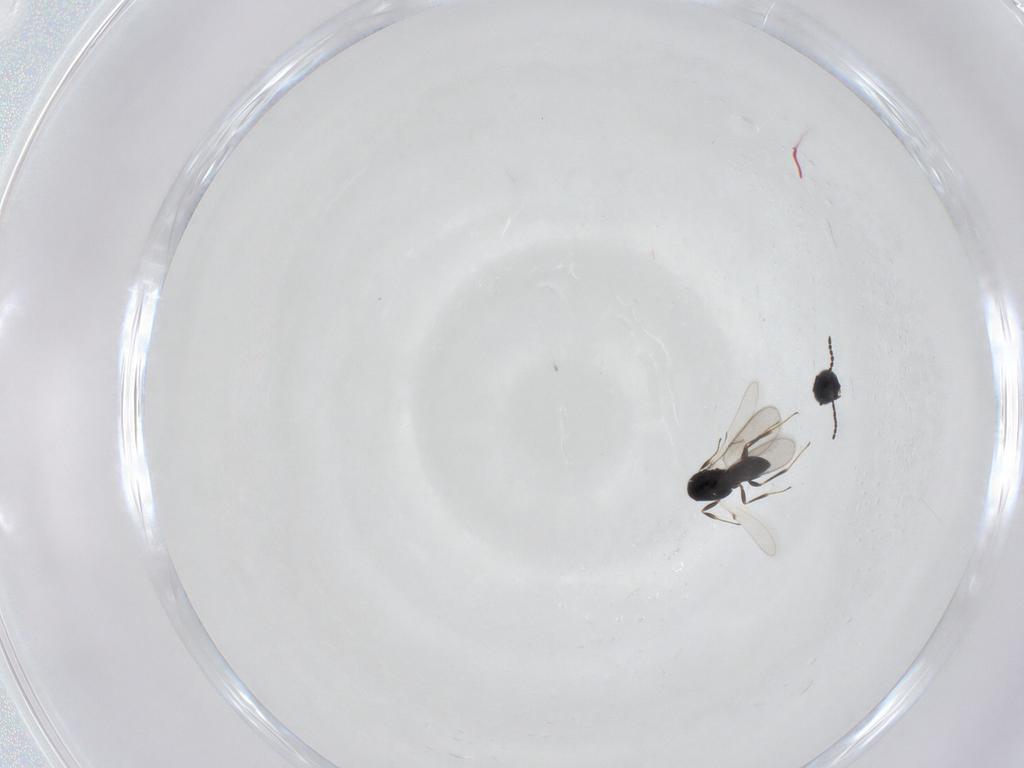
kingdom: Animalia
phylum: Arthropoda
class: Insecta
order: Hymenoptera
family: Scelionidae
